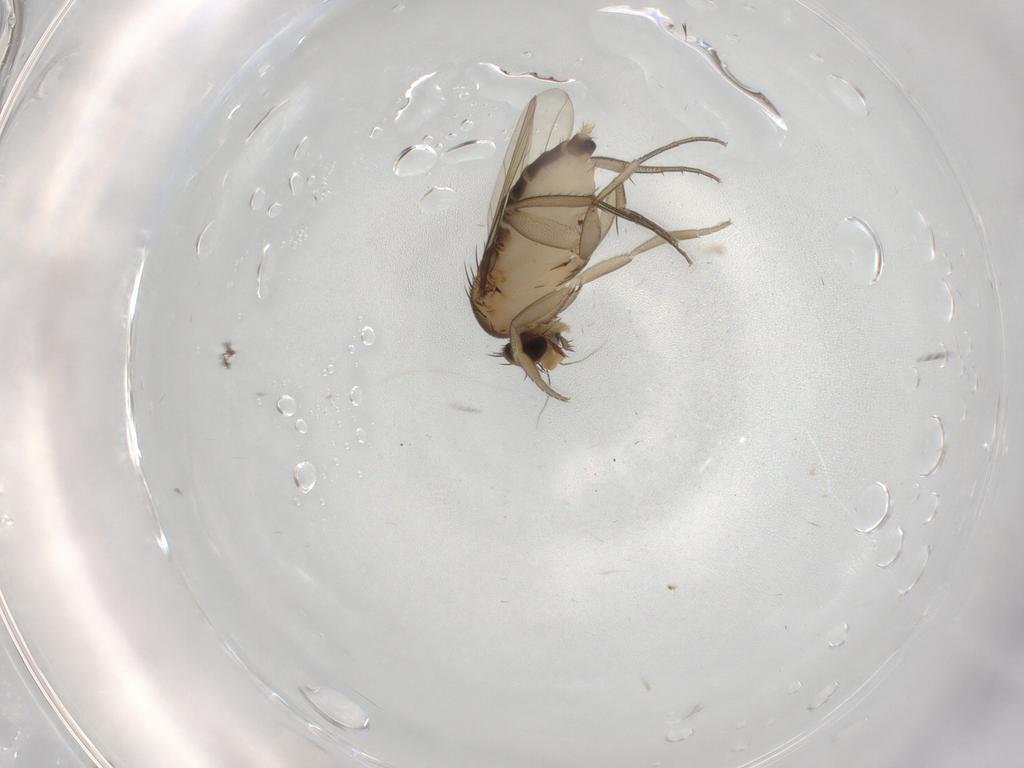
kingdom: Animalia
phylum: Arthropoda
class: Insecta
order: Diptera
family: Phoridae
